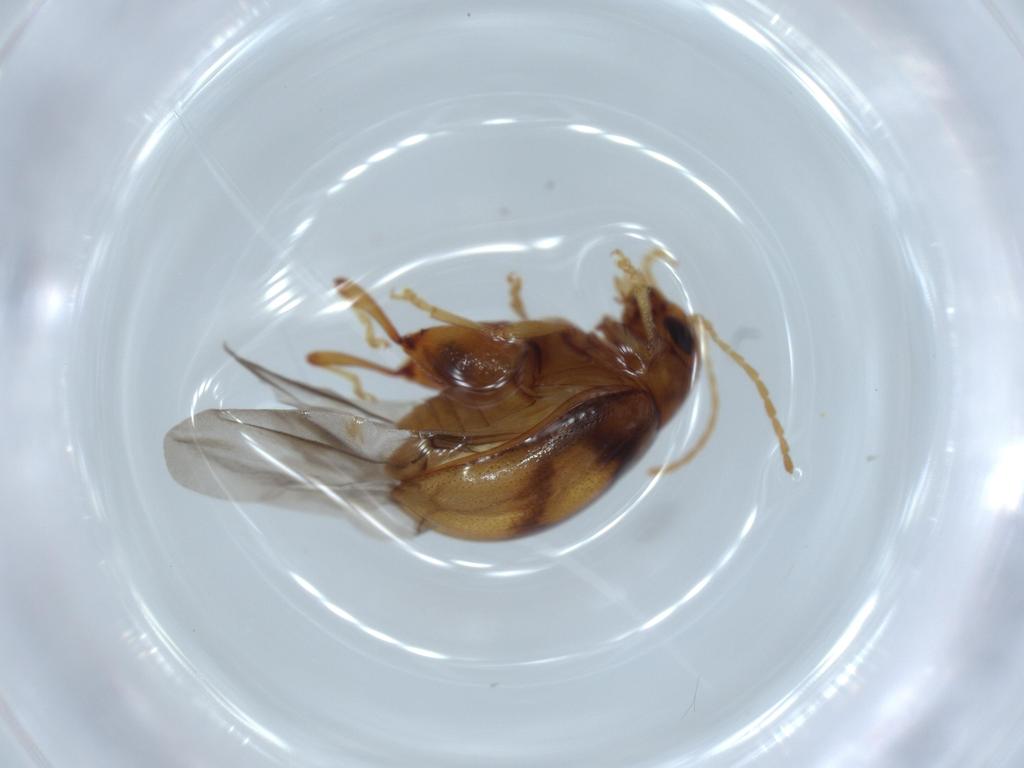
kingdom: Animalia
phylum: Arthropoda
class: Insecta
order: Coleoptera
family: Chrysomelidae
